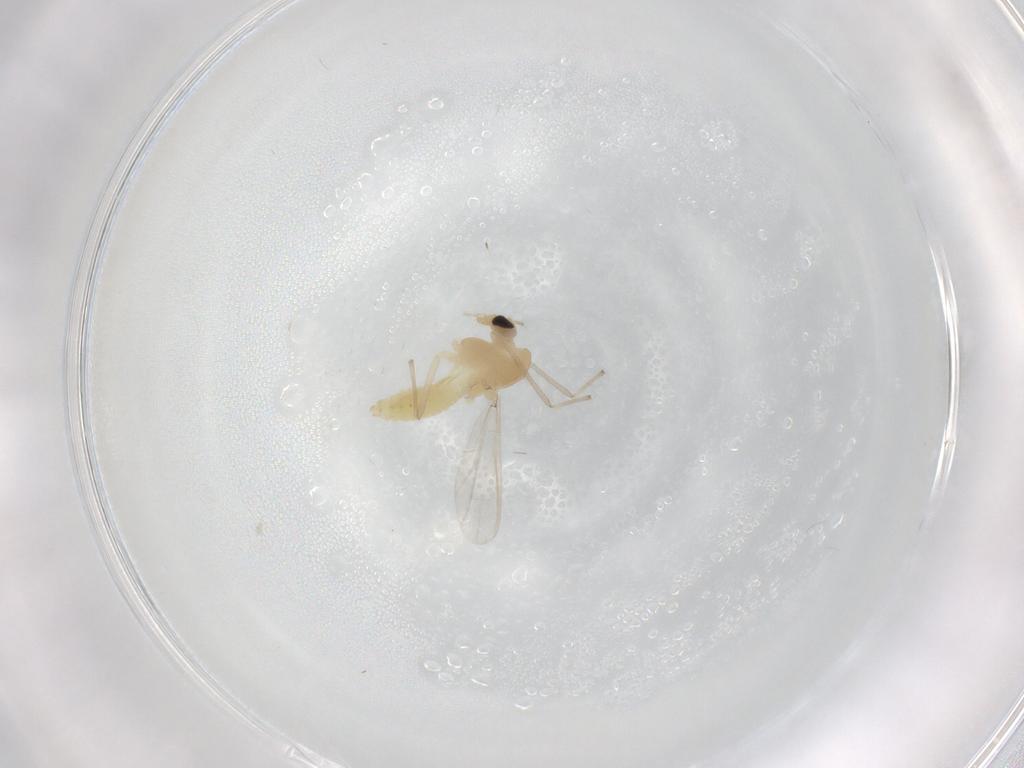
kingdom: Animalia
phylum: Arthropoda
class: Insecta
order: Diptera
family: Chironomidae
